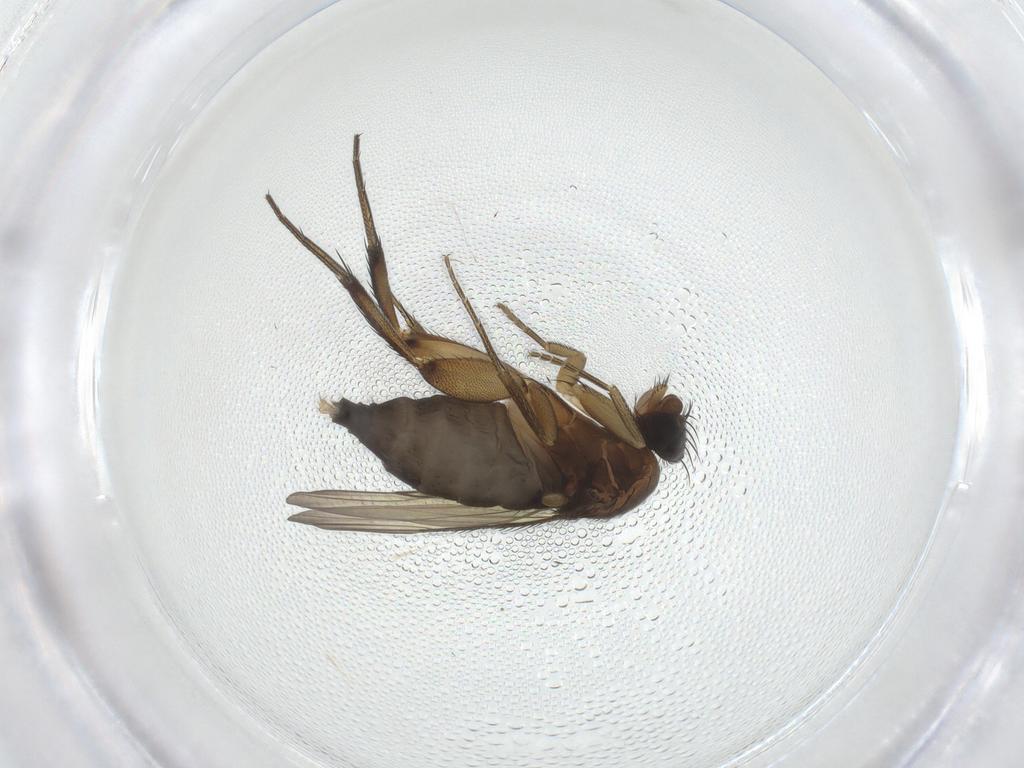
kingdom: Animalia
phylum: Arthropoda
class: Insecta
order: Diptera
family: Phoridae
